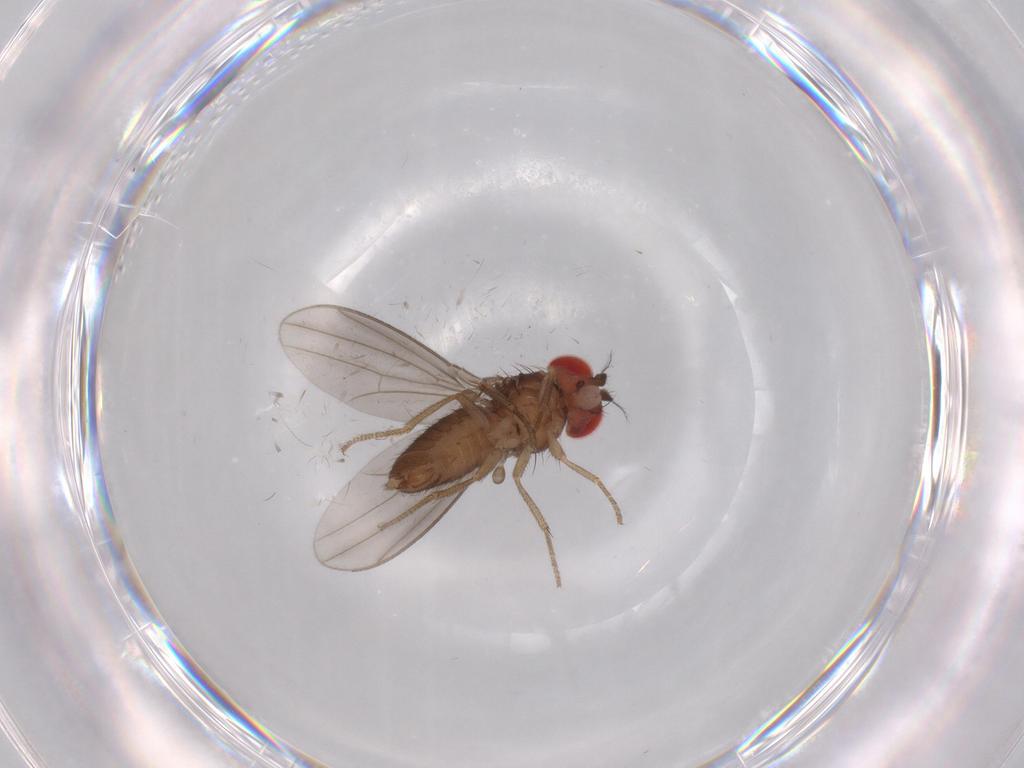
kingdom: Animalia
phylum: Arthropoda
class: Insecta
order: Diptera
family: Drosophilidae
